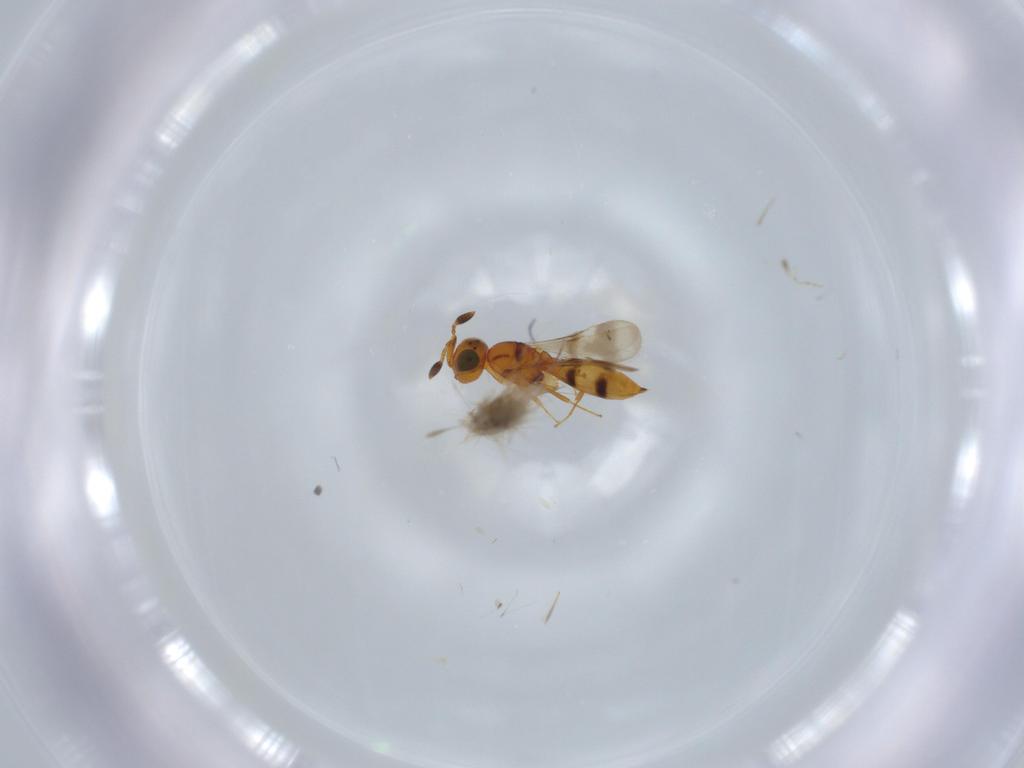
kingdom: Animalia
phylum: Arthropoda
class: Insecta
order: Hymenoptera
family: Scelionidae
